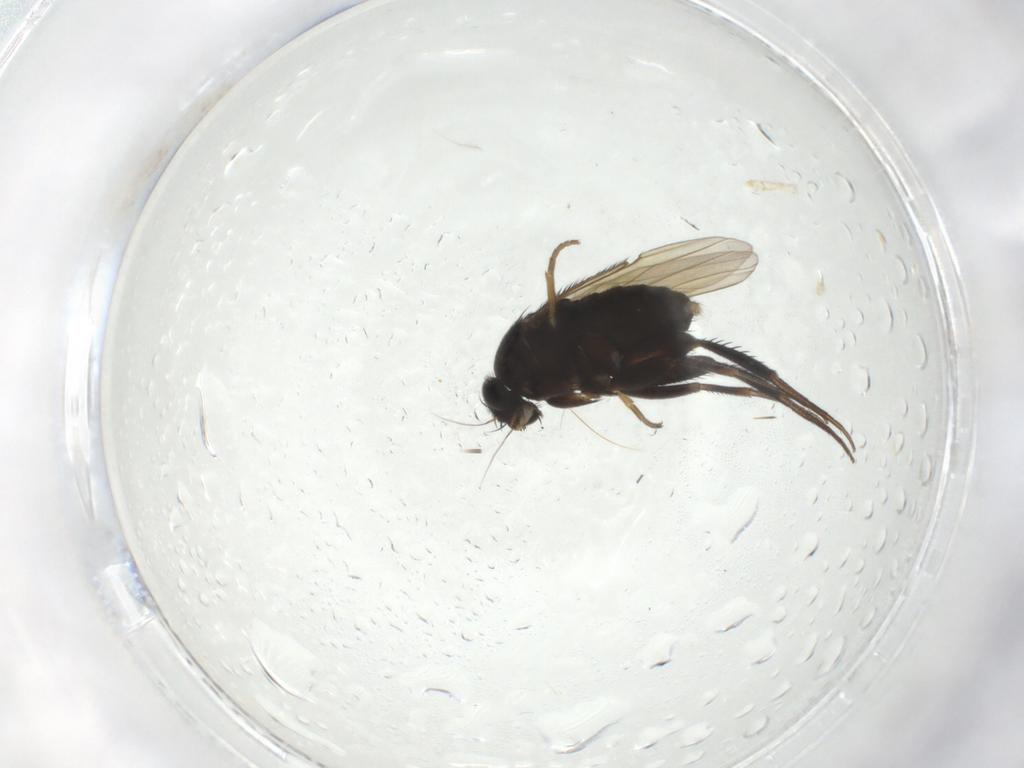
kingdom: Animalia
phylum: Arthropoda
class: Insecta
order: Diptera
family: Phoridae
